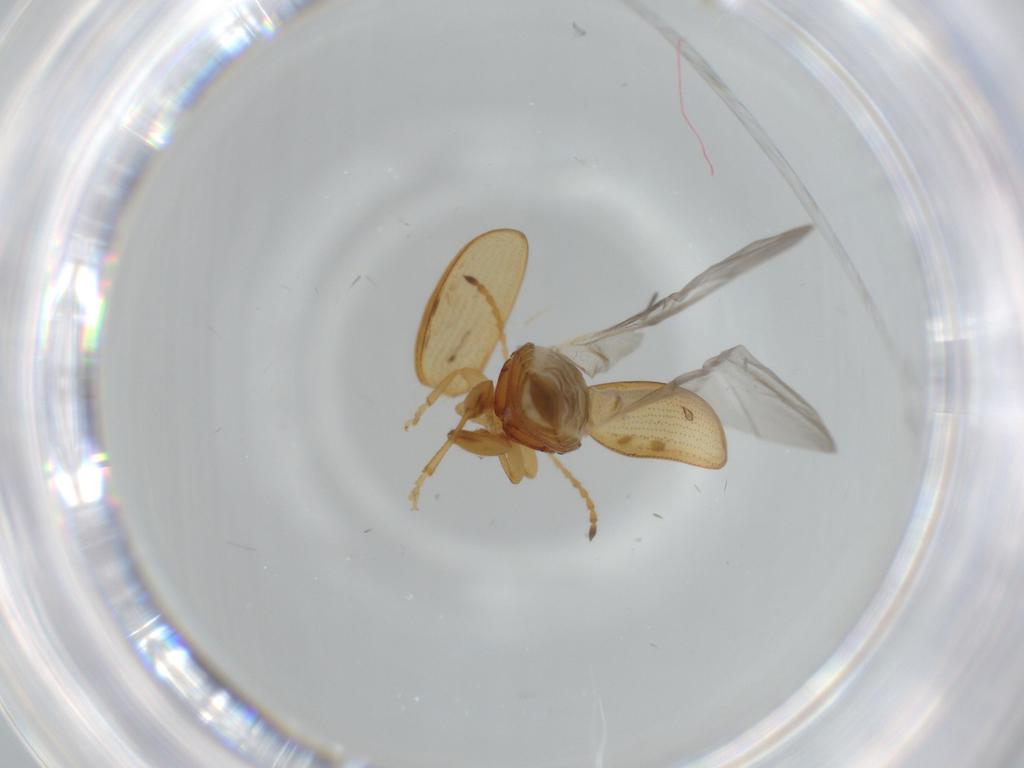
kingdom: Animalia
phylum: Arthropoda
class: Insecta
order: Coleoptera
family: Chrysomelidae
